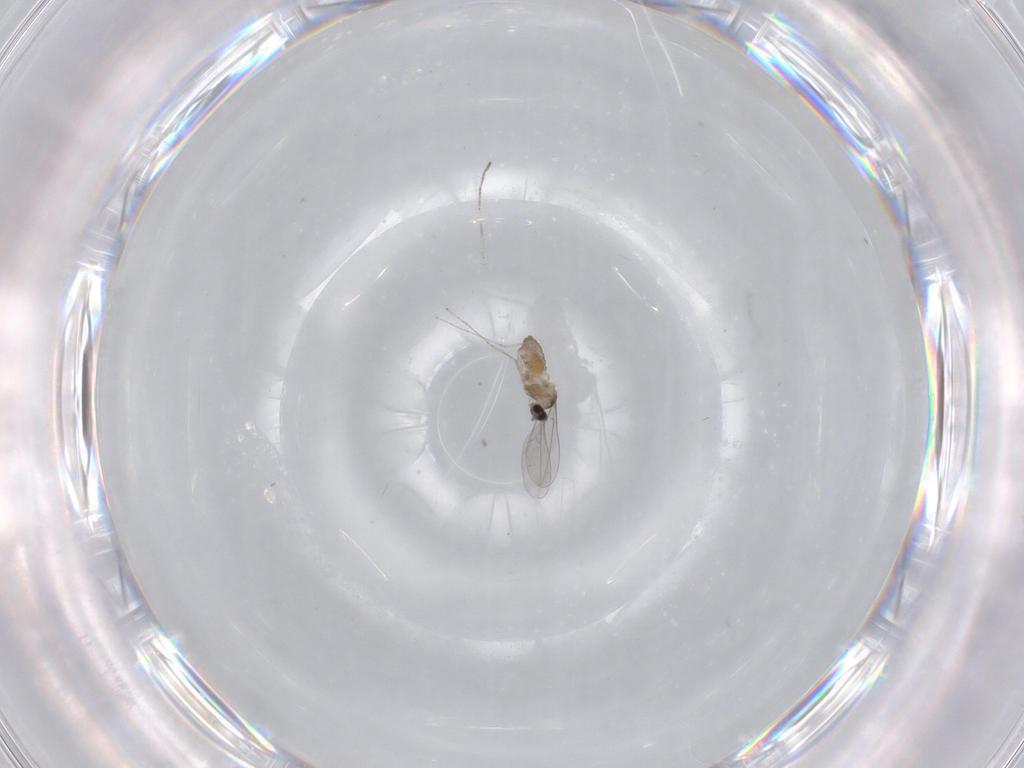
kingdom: Animalia
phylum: Arthropoda
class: Insecta
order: Diptera
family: Cecidomyiidae
